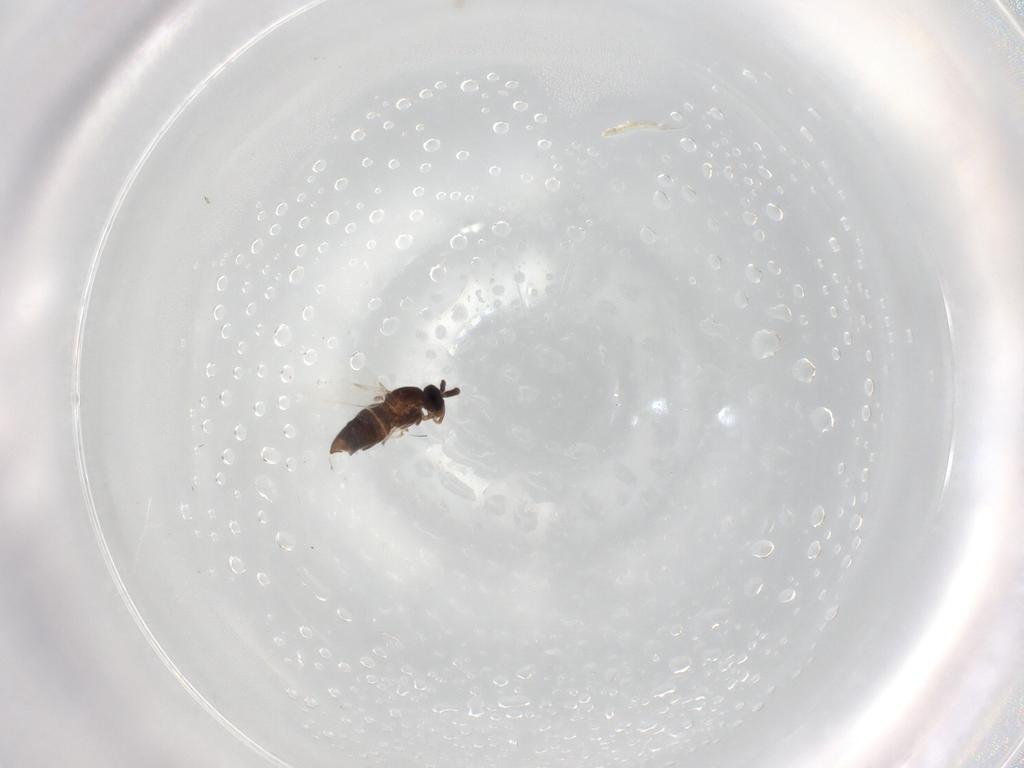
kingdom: Animalia
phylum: Arthropoda
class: Insecta
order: Diptera
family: Scatopsidae
